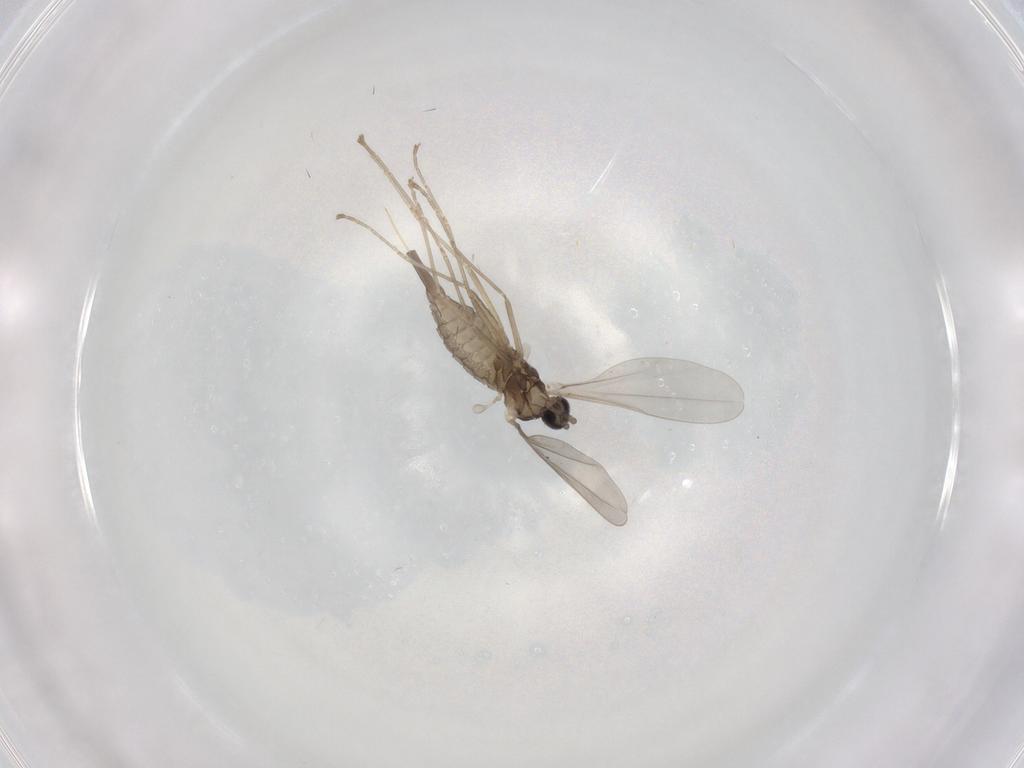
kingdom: Animalia
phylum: Arthropoda
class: Insecta
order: Diptera
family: Cecidomyiidae
